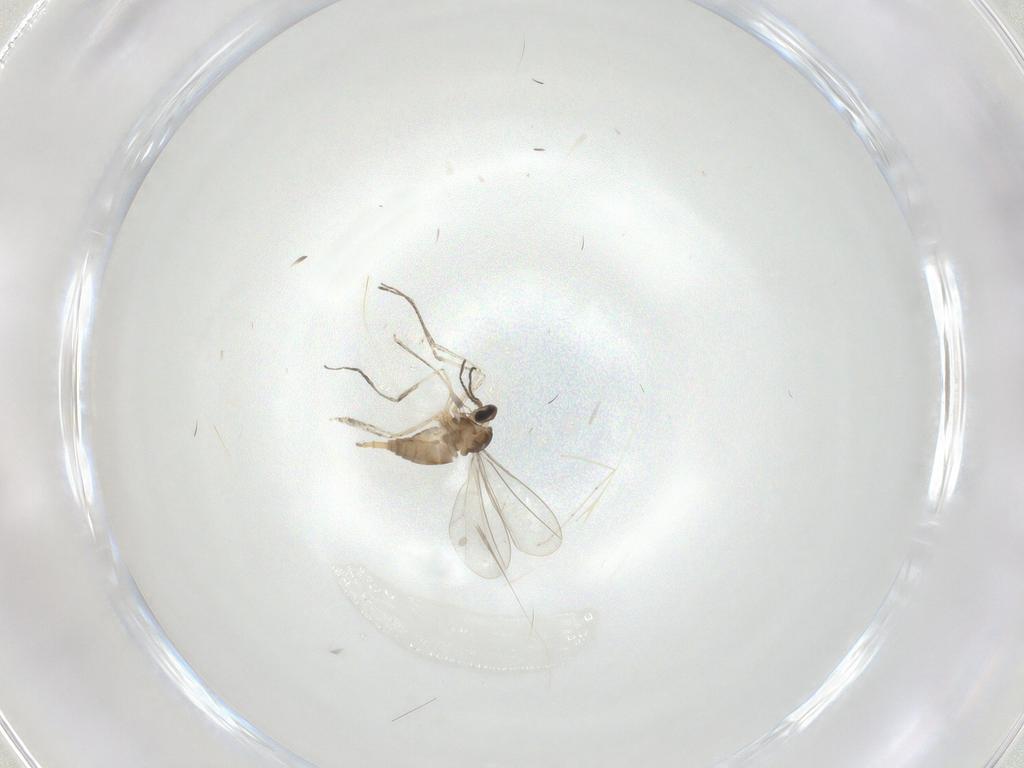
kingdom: Animalia
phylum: Arthropoda
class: Insecta
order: Diptera
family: Cecidomyiidae
